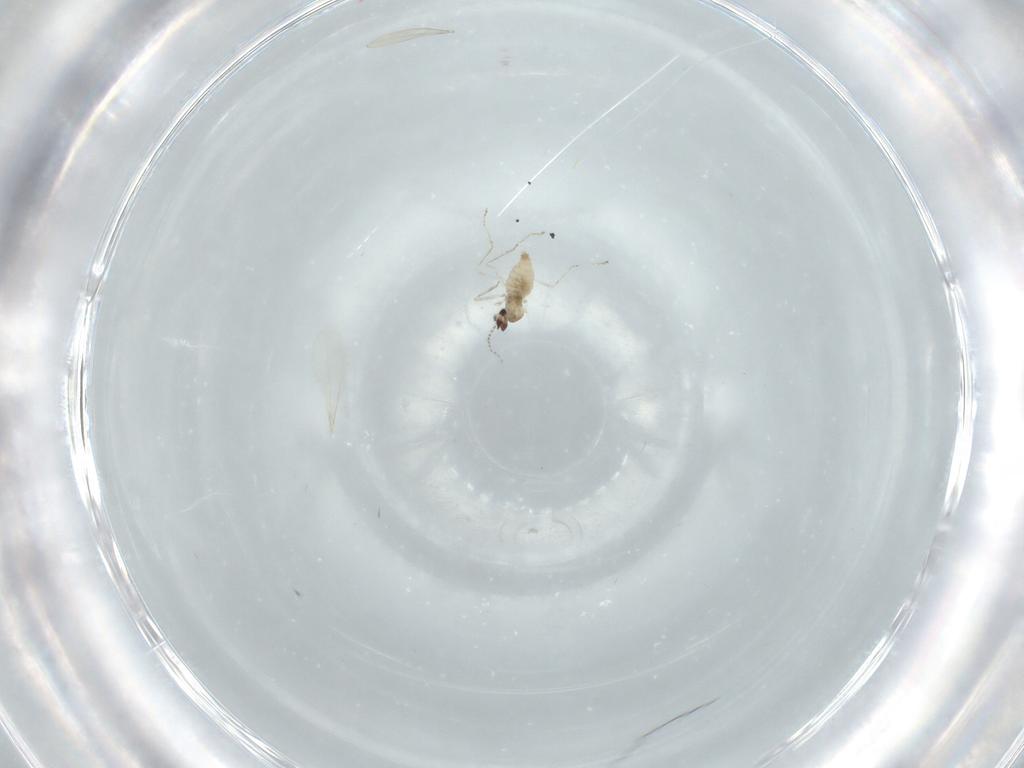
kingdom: Animalia
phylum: Arthropoda
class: Insecta
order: Diptera
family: Cecidomyiidae
